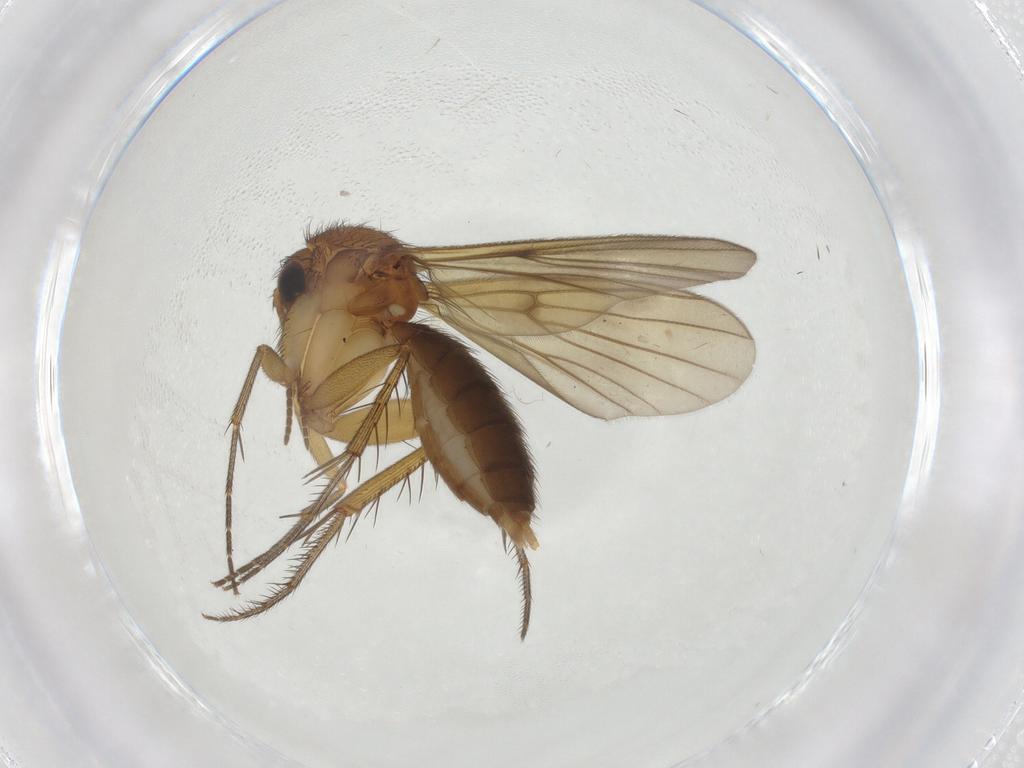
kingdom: Animalia
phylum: Arthropoda
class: Insecta
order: Diptera
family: Mycetophilidae
